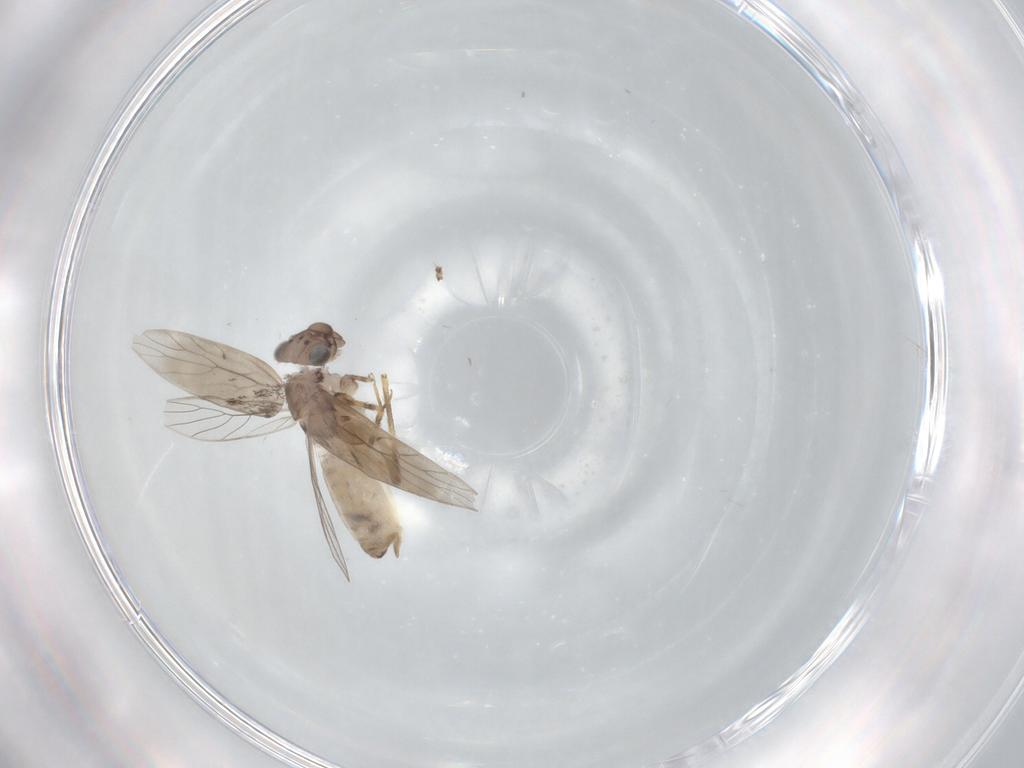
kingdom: Animalia
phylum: Arthropoda
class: Insecta
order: Psocodea
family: Lepidopsocidae
